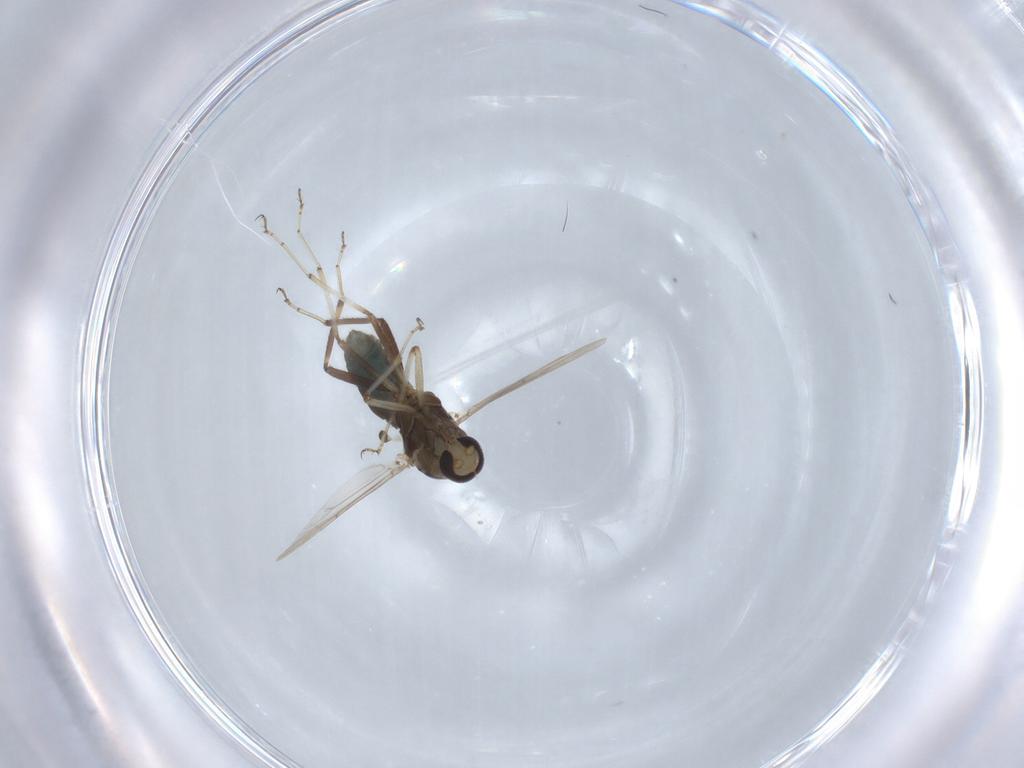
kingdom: Animalia
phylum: Arthropoda
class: Insecta
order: Diptera
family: Ceratopogonidae
